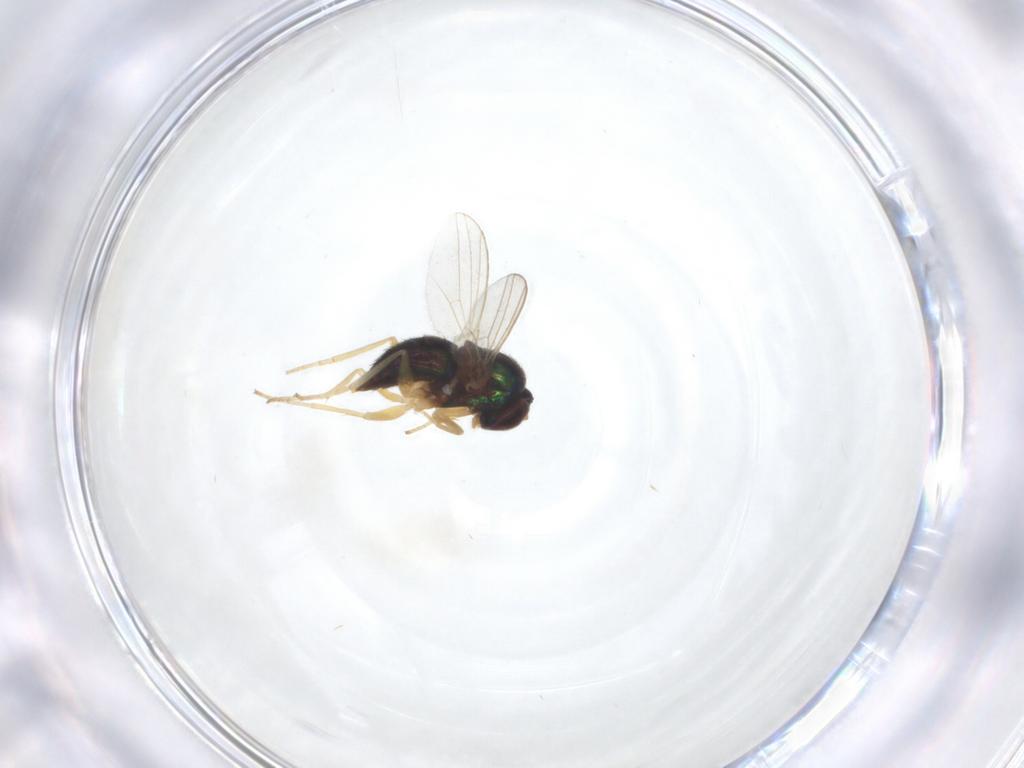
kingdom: Animalia
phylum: Arthropoda
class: Insecta
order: Diptera
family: Dolichopodidae
